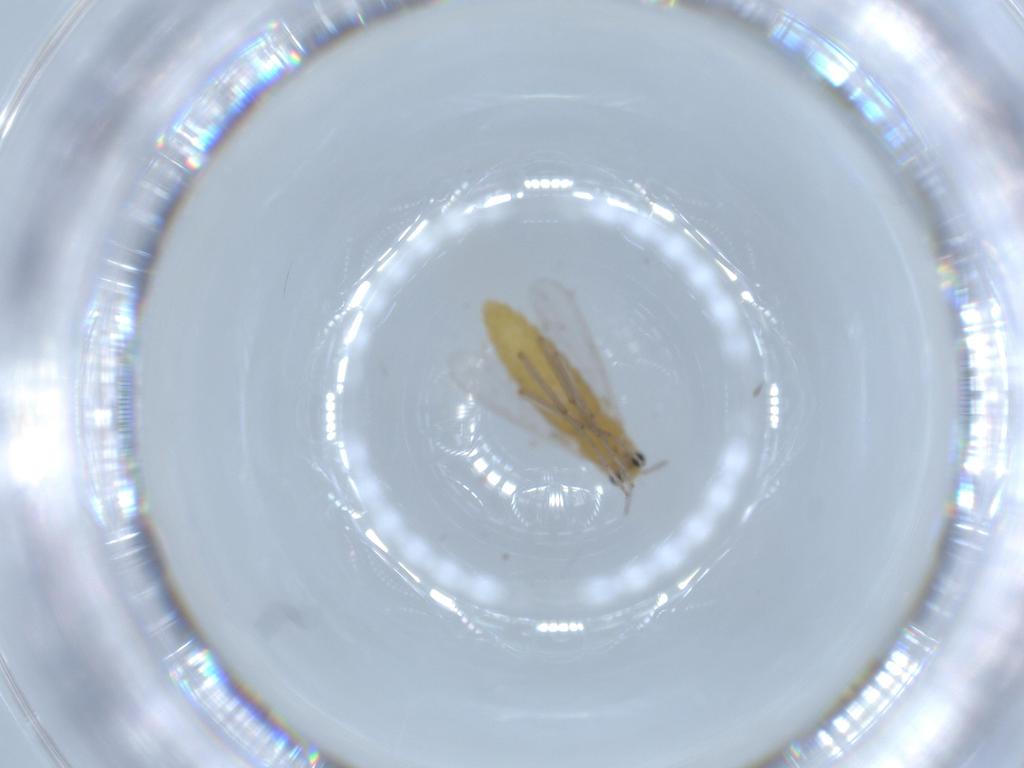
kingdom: Animalia
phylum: Arthropoda
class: Insecta
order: Diptera
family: Chironomidae
